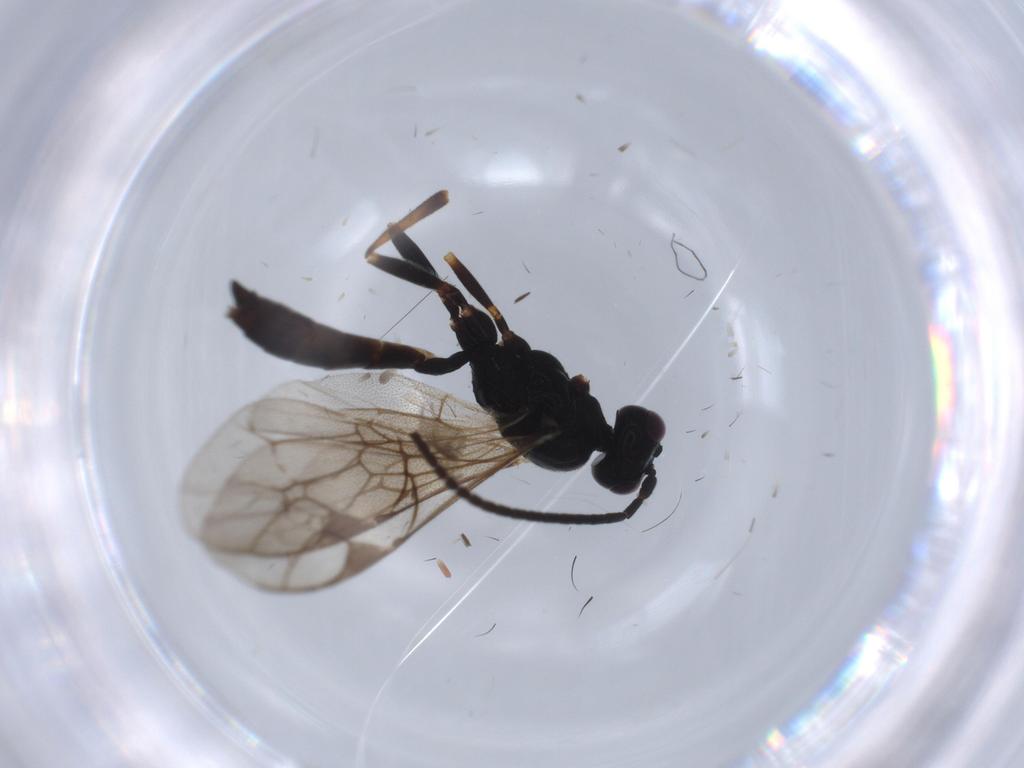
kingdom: Animalia
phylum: Arthropoda
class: Insecta
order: Hymenoptera
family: Ichneumonidae
